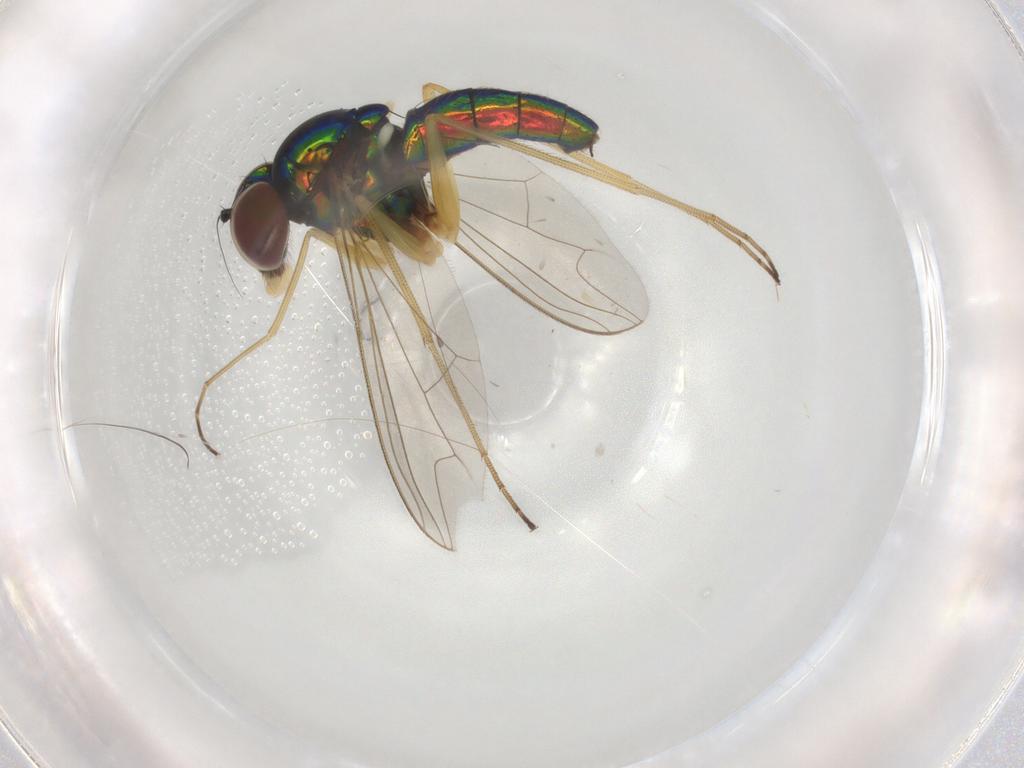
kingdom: Animalia
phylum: Arthropoda
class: Insecta
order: Diptera
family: Dolichopodidae
